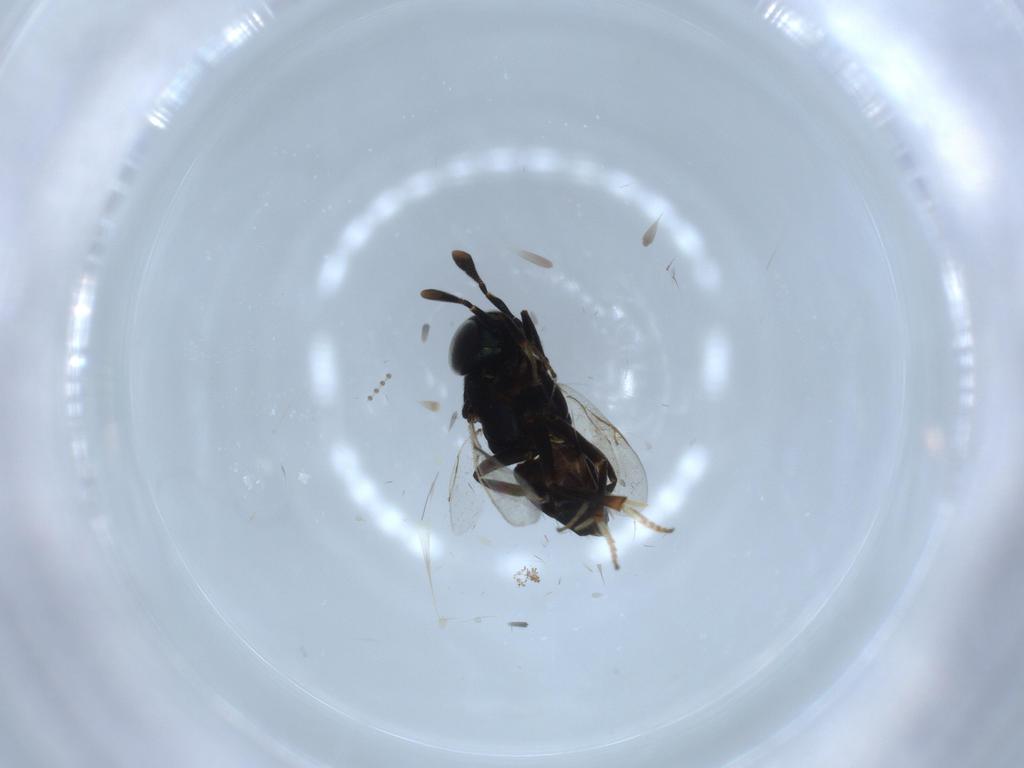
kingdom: Animalia
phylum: Arthropoda
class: Insecta
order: Hymenoptera
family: Encyrtidae
